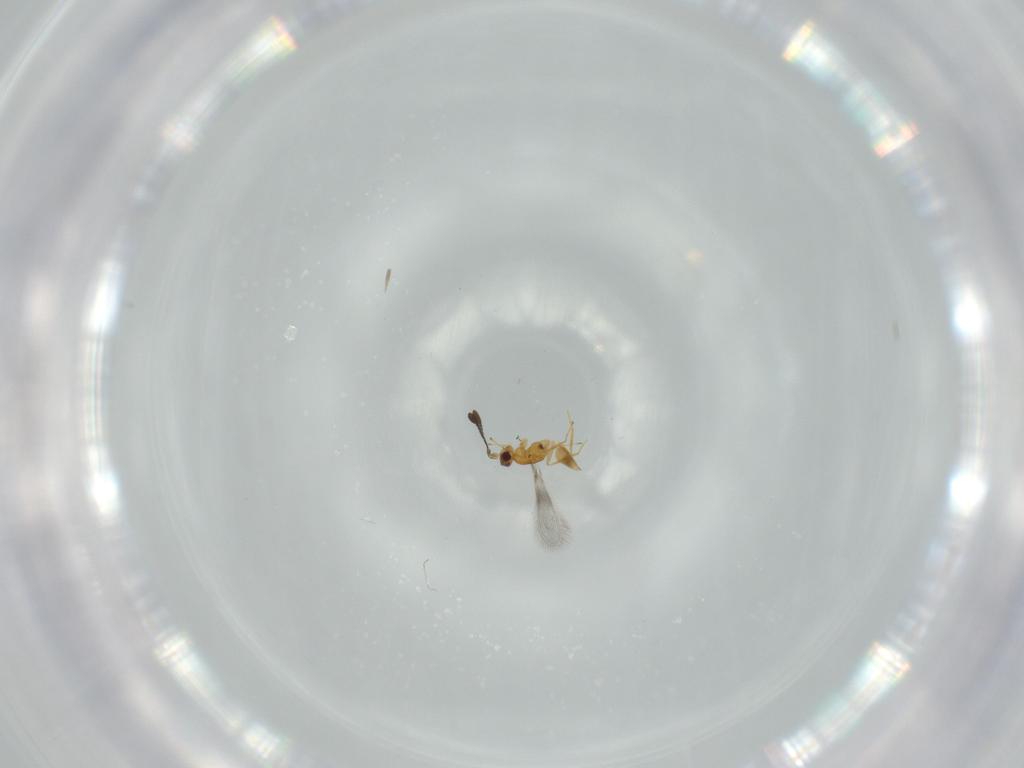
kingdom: Animalia
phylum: Arthropoda
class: Insecta
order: Hymenoptera
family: Mymaridae
